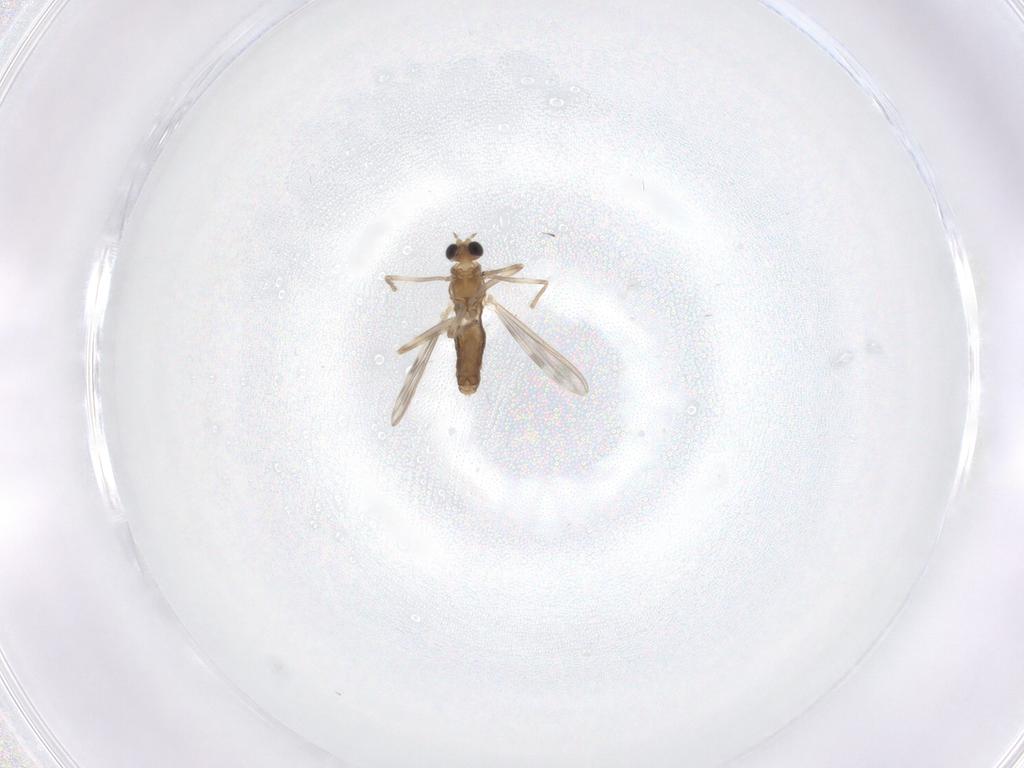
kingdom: Animalia
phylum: Arthropoda
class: Insecta
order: Diptera
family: Chironomidae
